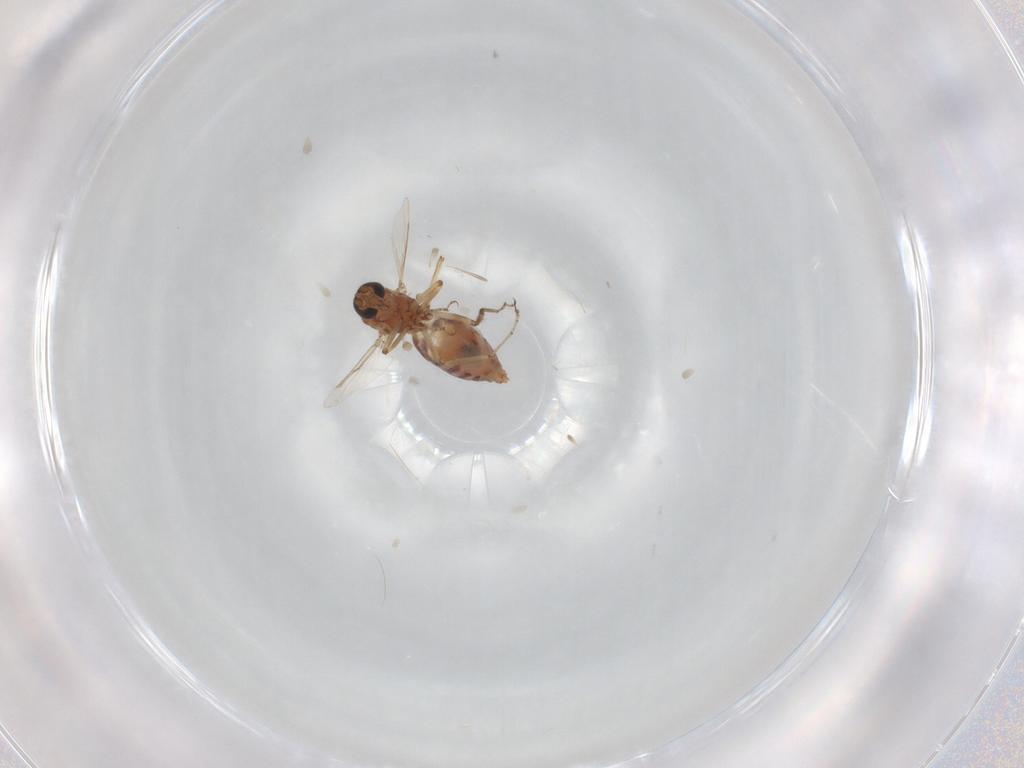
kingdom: Animalia
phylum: Arthropoda
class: Insecta
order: Diptera
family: Ceratopogonidae
